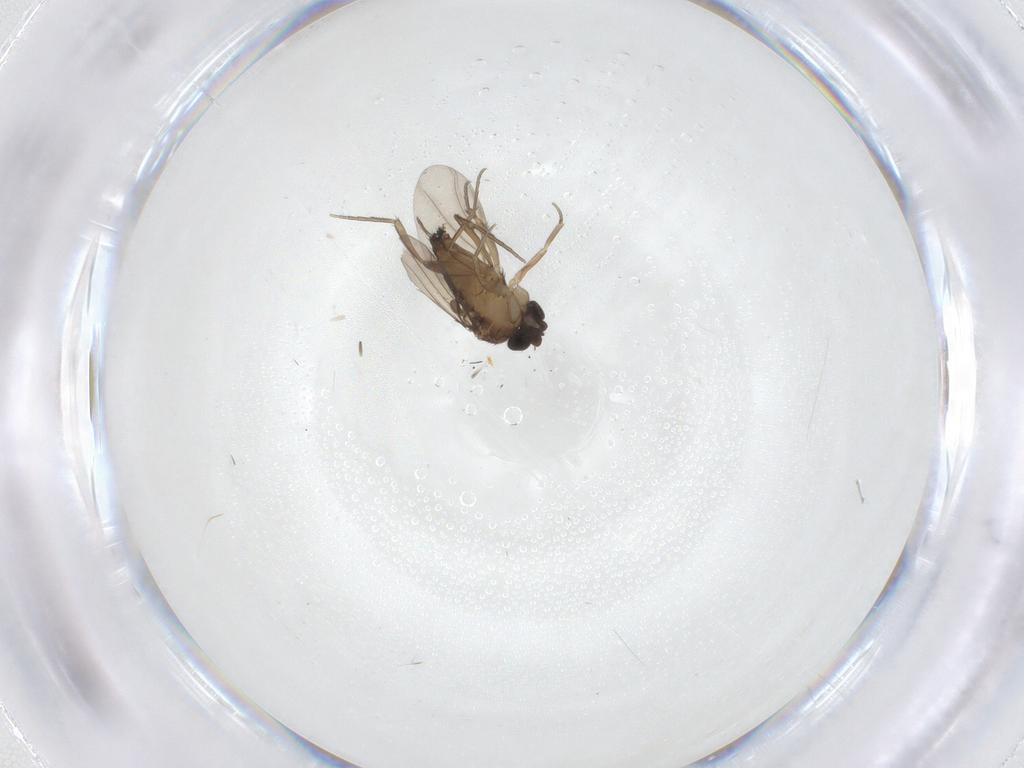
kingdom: Animalia
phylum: Arthropoda
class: Insecta
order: Diptera
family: Phoridae
